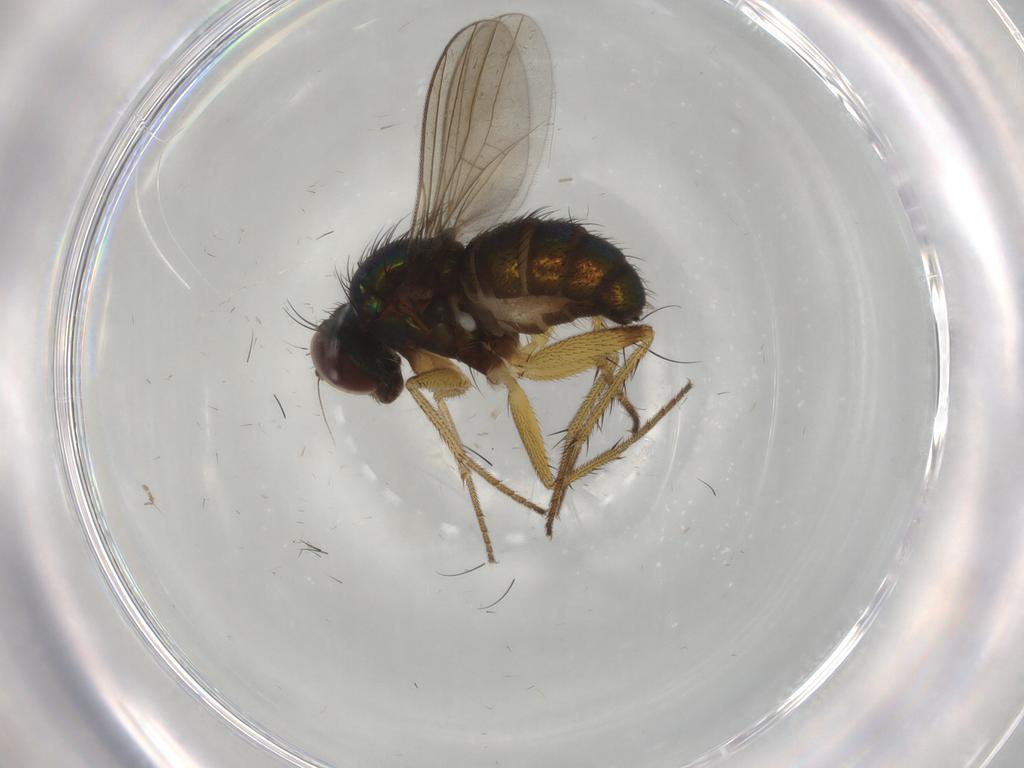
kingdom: Animalia
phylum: Arthropoda
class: Insecta
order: Diptera
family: Dolichopodidae
